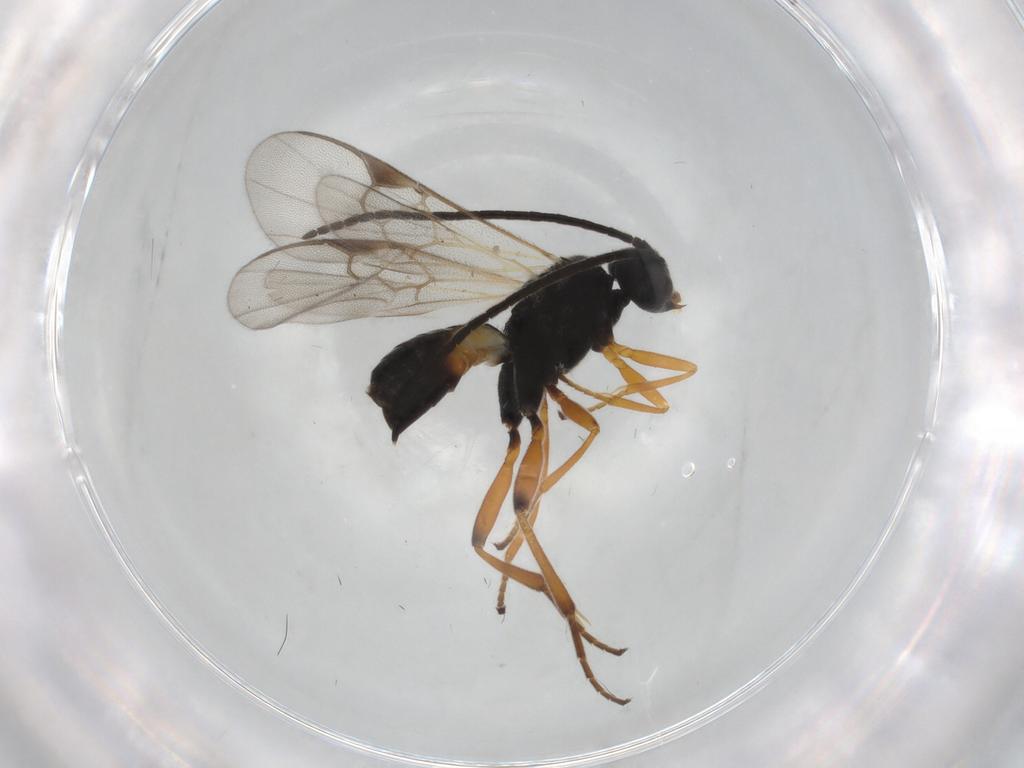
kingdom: Animalia
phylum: Arthropoda
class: Insecta
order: Hymenoptera
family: Braconidae
